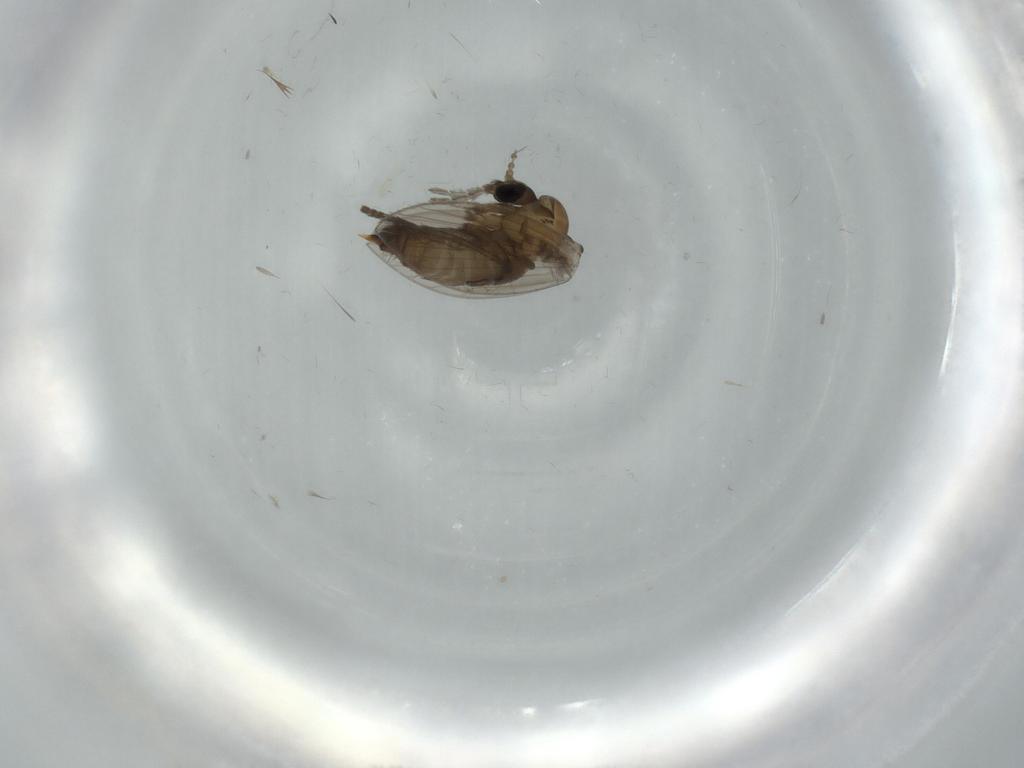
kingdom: Animalia
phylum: Arthropoda
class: Insecta
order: Diptera
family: Psychodidae
